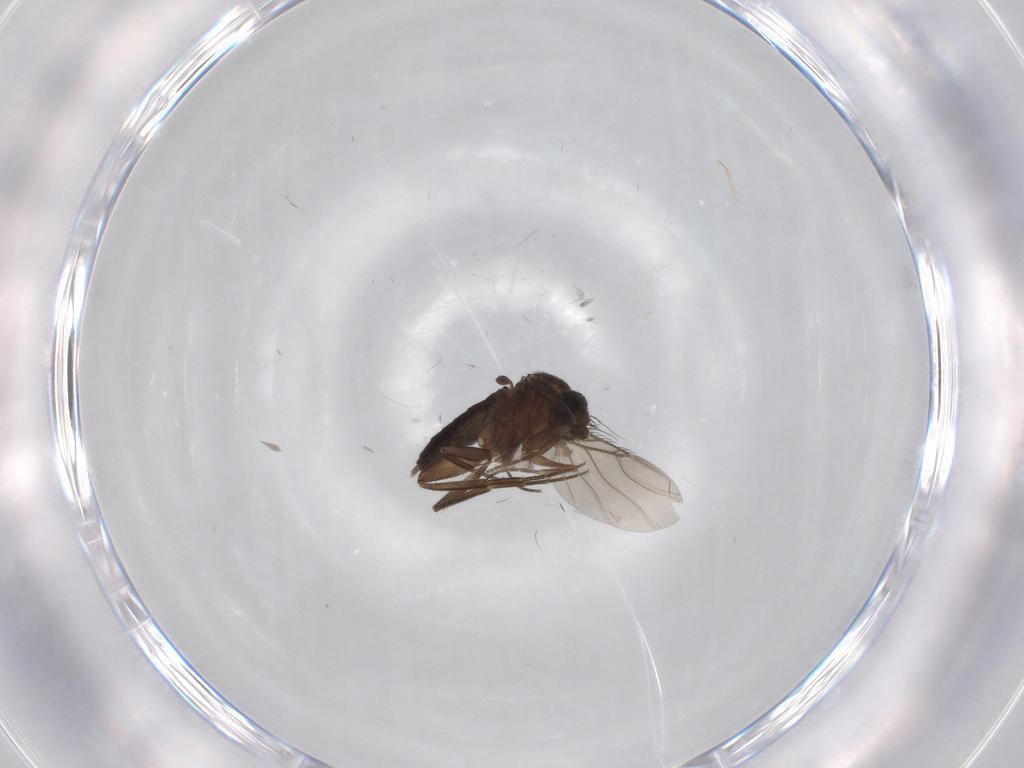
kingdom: Animalia
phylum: Arthropoda
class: Insecta
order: Diptera
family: Phoridae
